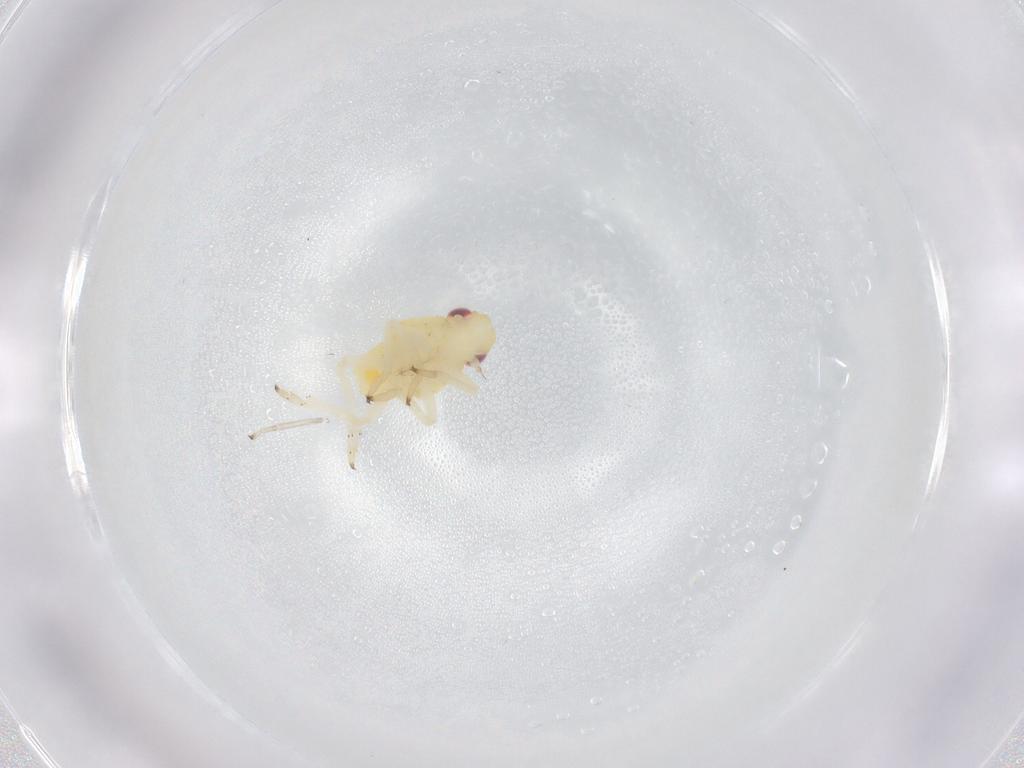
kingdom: Animalia
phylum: Arthropoda
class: Insecta
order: Hemiptera
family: Caliscelidae
